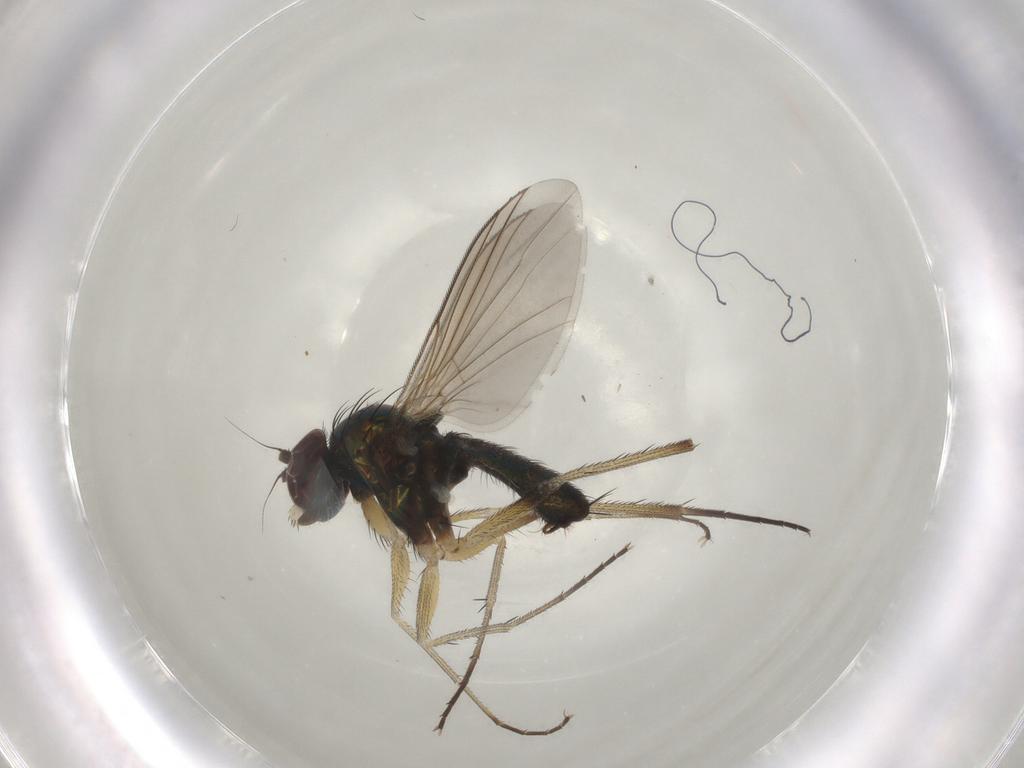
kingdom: Animalia
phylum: Arthropoda
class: Insecta
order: Diptera
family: Dolichopodidae
